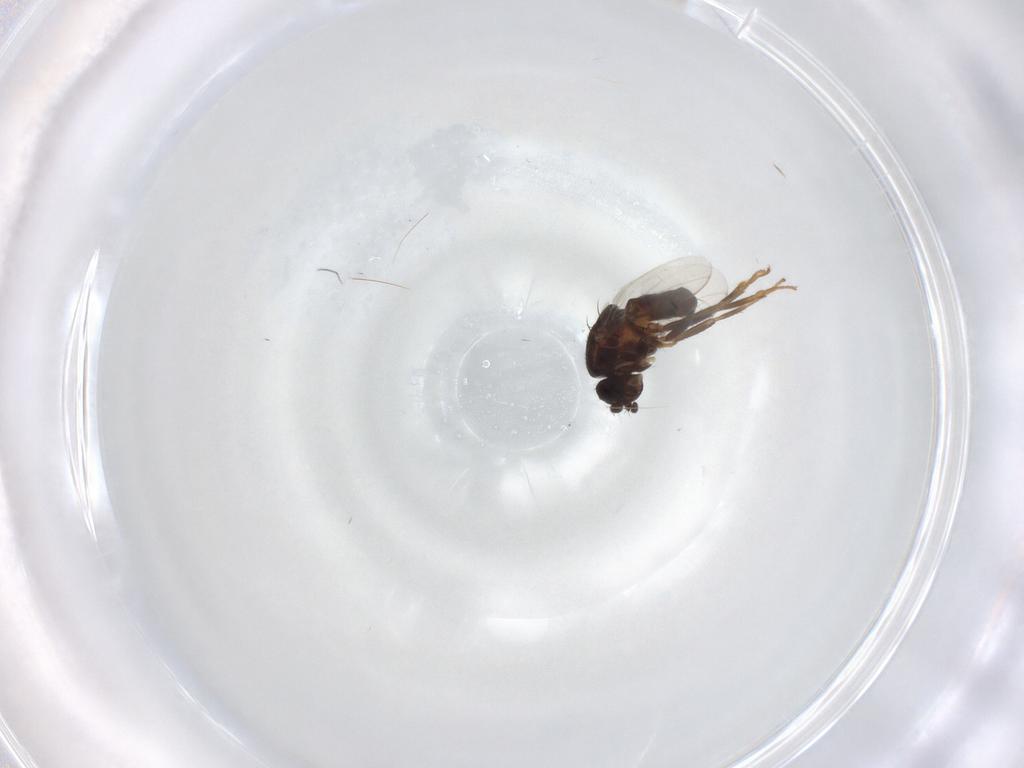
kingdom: Animalia
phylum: Arthropoda
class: Insecta
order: Diptera
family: Sphaeroceridae
